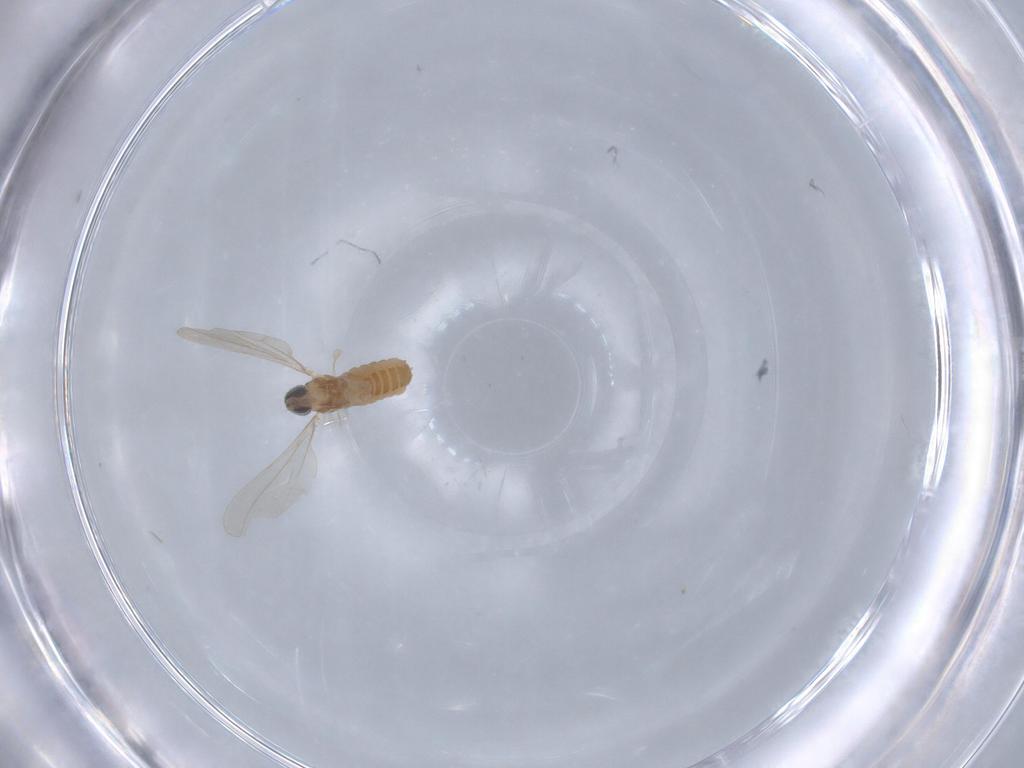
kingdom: Animalia
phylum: Arthropoda
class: Insecta
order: Diptera
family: Cecidomyiidae
